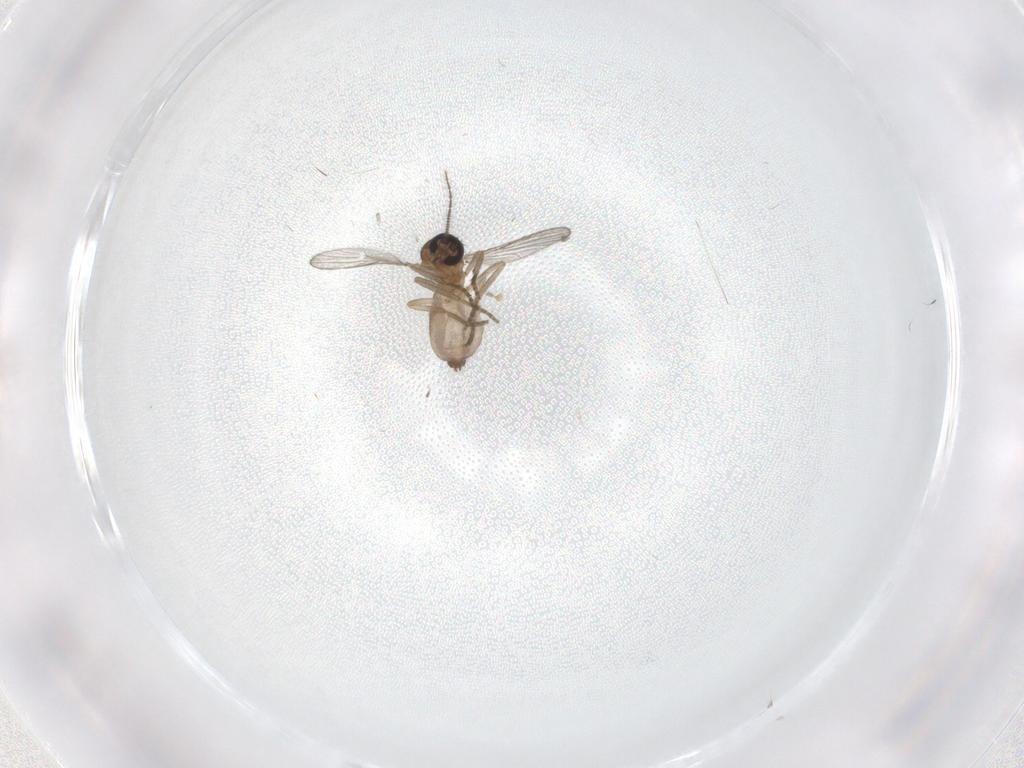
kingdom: Animalia
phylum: Arthropoda
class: Insecta
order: Diptera
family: Ceratopogonidae
